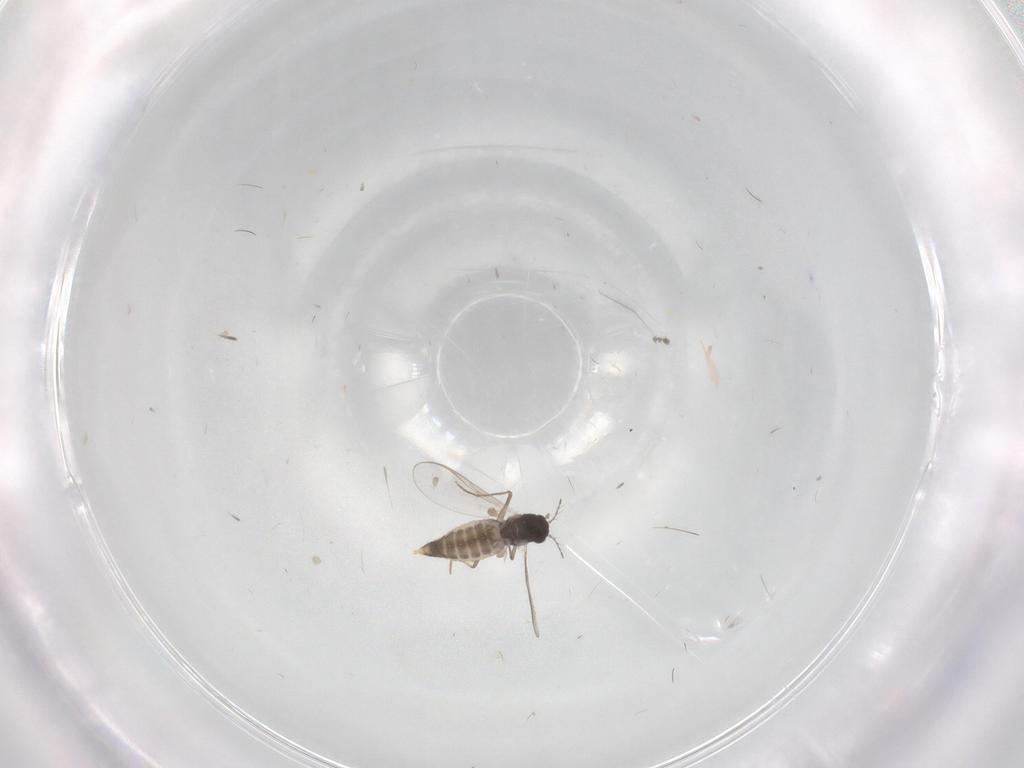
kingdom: Animalia
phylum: Arthropoda
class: Insecta
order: Diptera
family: Chironomidae
